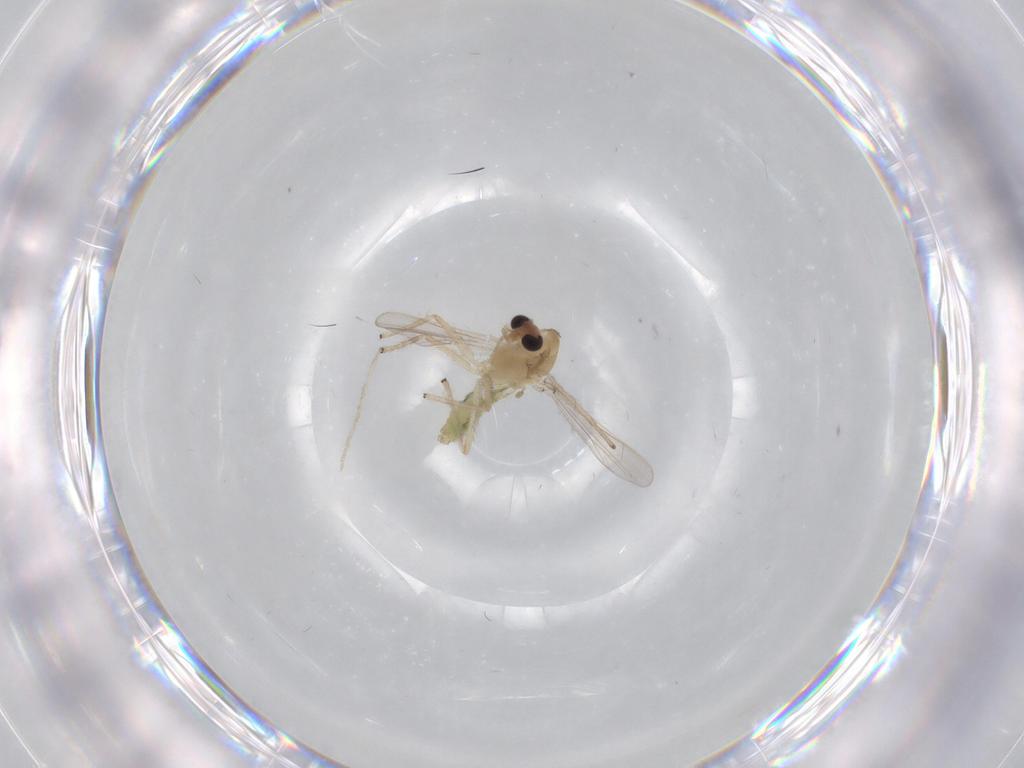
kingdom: Animalia
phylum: Arthropoda
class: Insecta
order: Diptera
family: Chironomidae
